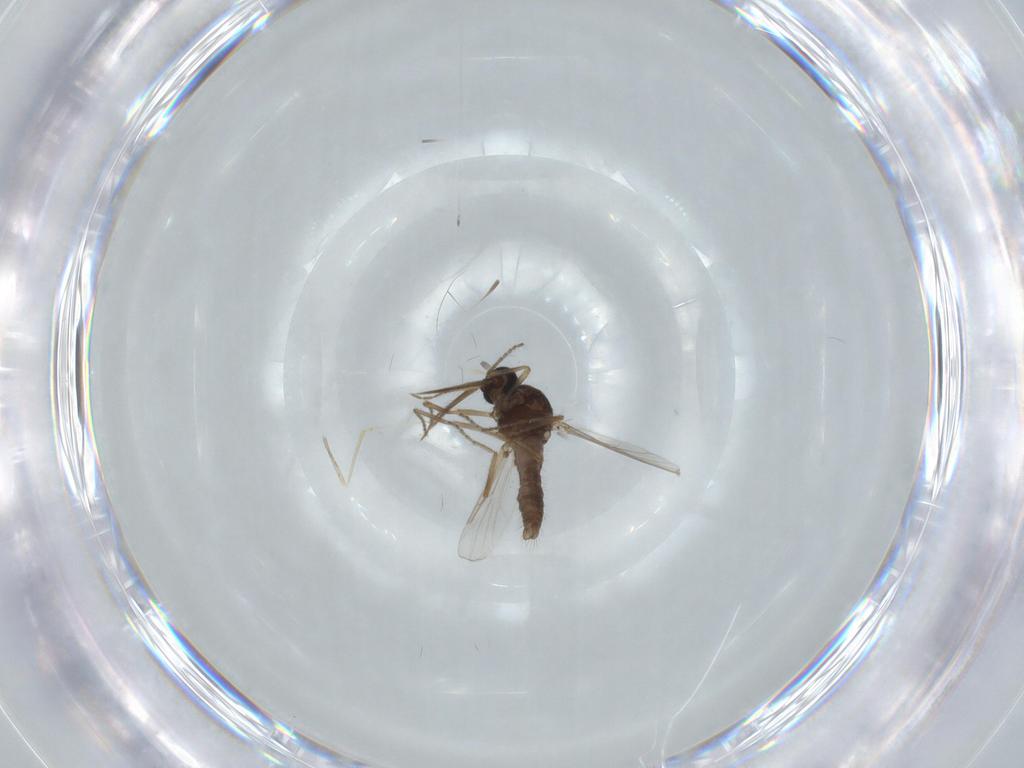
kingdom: Animalia
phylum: Arthropoda
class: Insecta
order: Diptera
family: Ceratopogonidae
